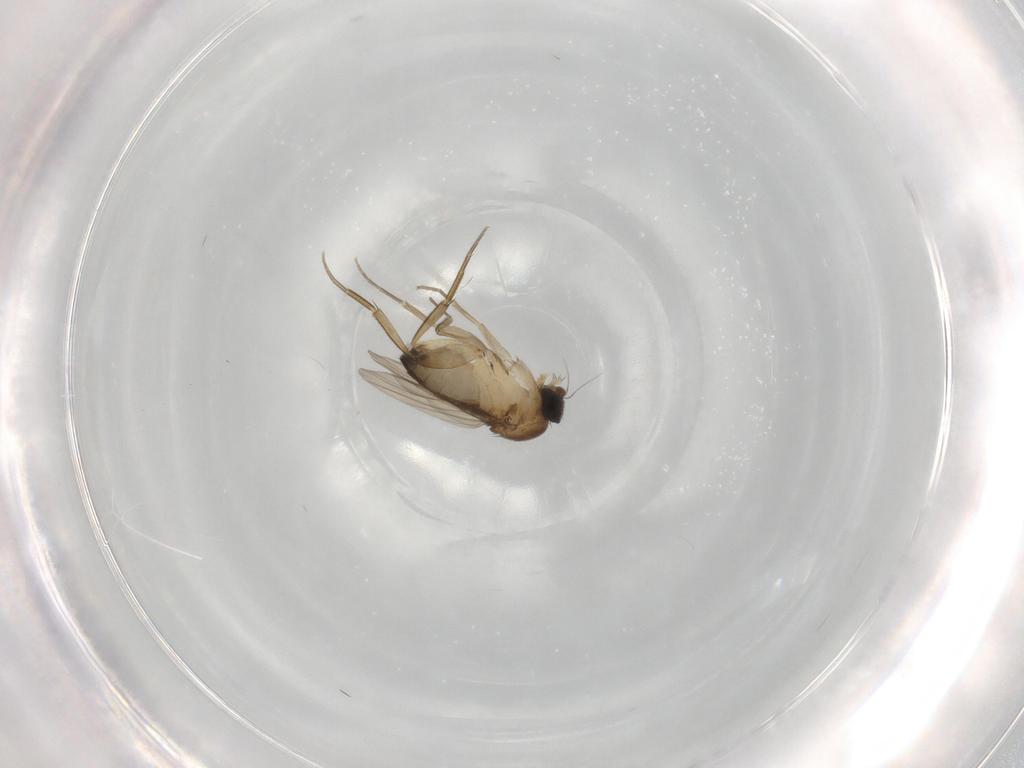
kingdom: Animalia
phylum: Arthropoda
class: Insecta
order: Diptera
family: Phoridae
